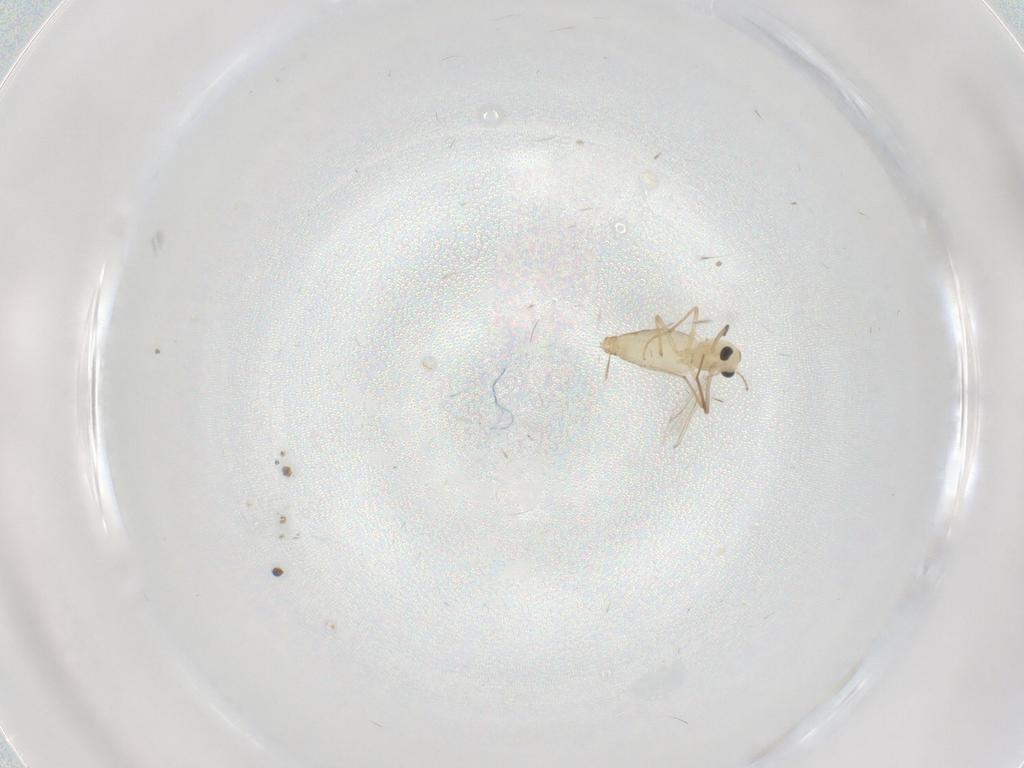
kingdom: Animalia
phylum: Arthropoda
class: Insecta
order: Diptera
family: Chironomidae
